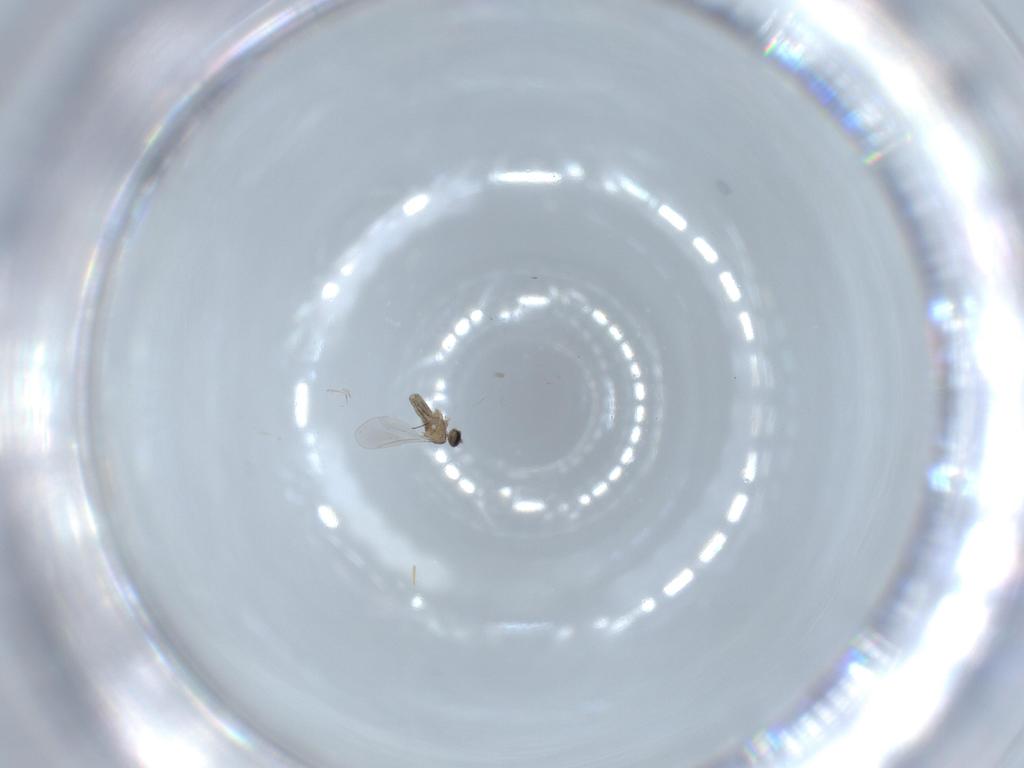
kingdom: Animalia
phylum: Arthropoda
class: Insecta
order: Diptera
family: Cecidomyiidae
